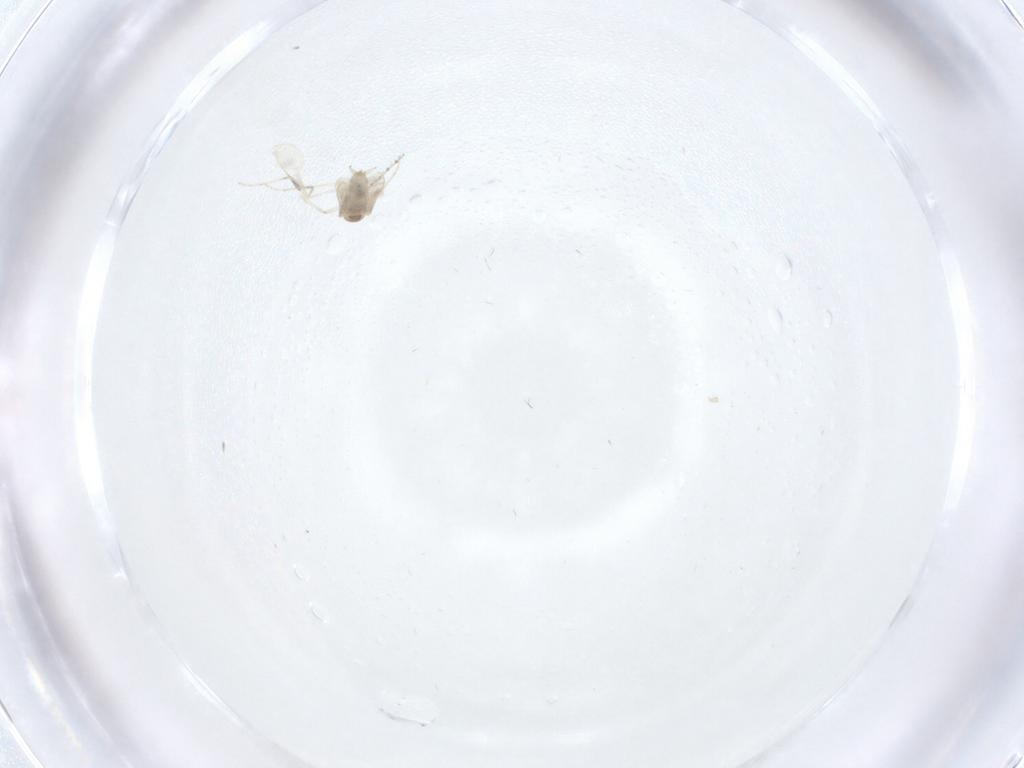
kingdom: Animalia
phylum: Arthropoda
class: Insecta
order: Diptera
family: Cecidomyiidae
